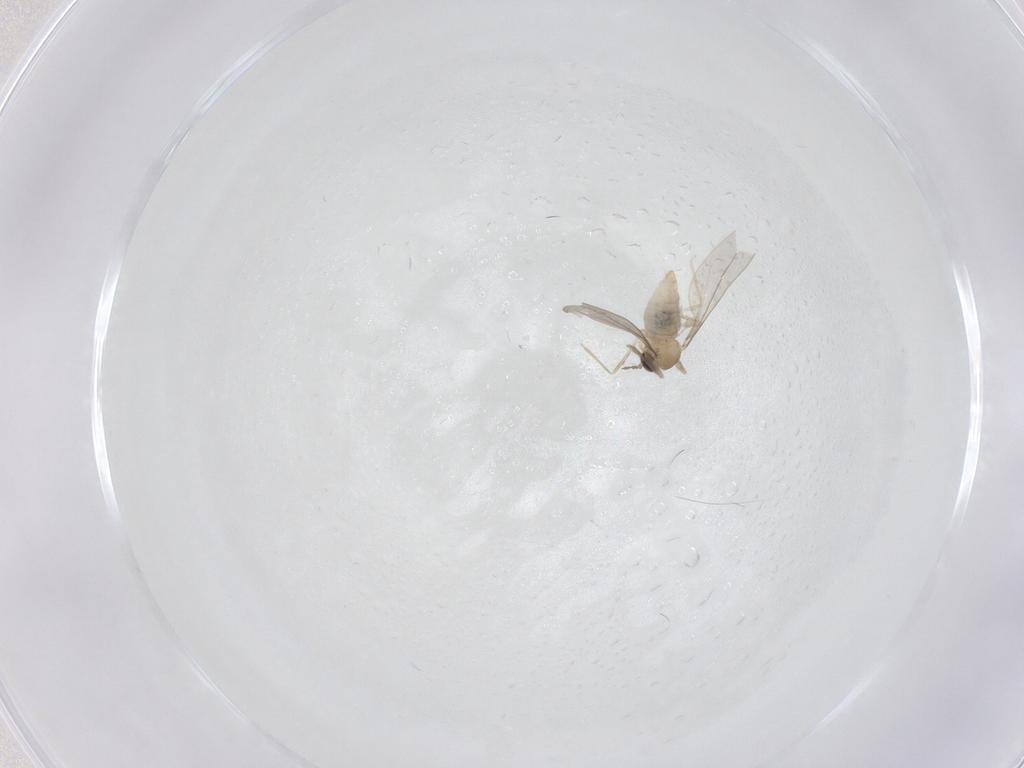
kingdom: Animalia
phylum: Arthropoda
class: Insecta
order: Diptera
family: Cecidomyiidae
